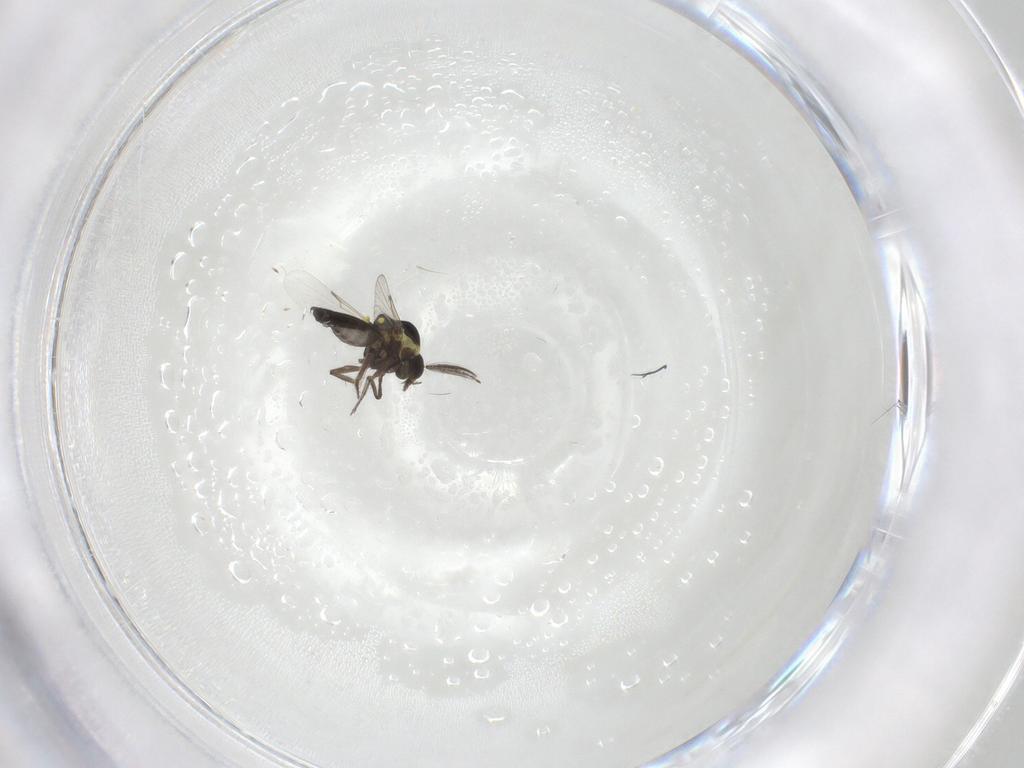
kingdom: Animalia
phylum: Arthropoda
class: Insecta
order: Diptera
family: Ceratopogonidae
